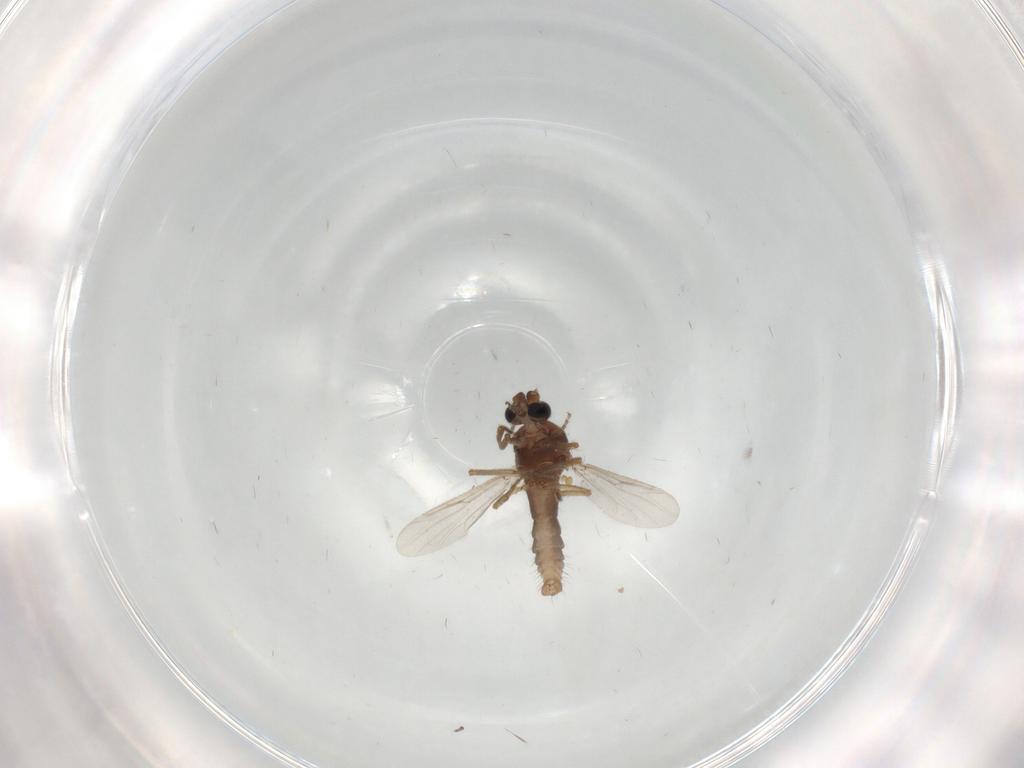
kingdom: Animalia
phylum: Arthropoda
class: Insecta
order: Diptera
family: Ceratopogonidae
